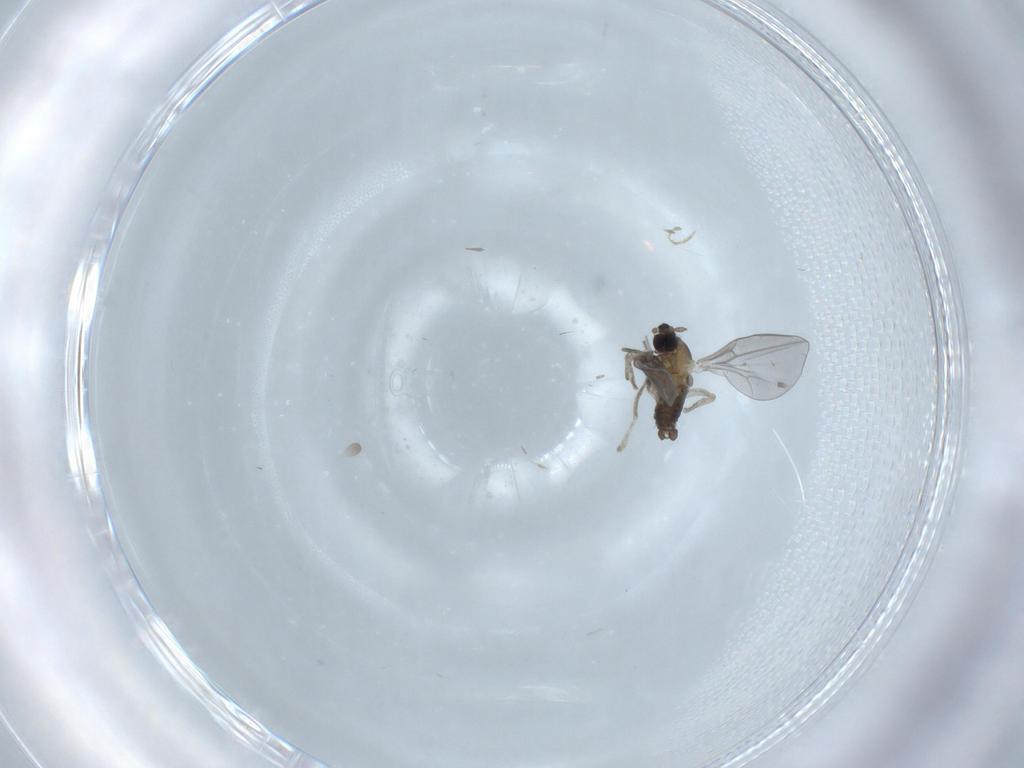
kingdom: Animalia
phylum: Arthropoda
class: Insecta
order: Diptera
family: Cecidomyiidae
